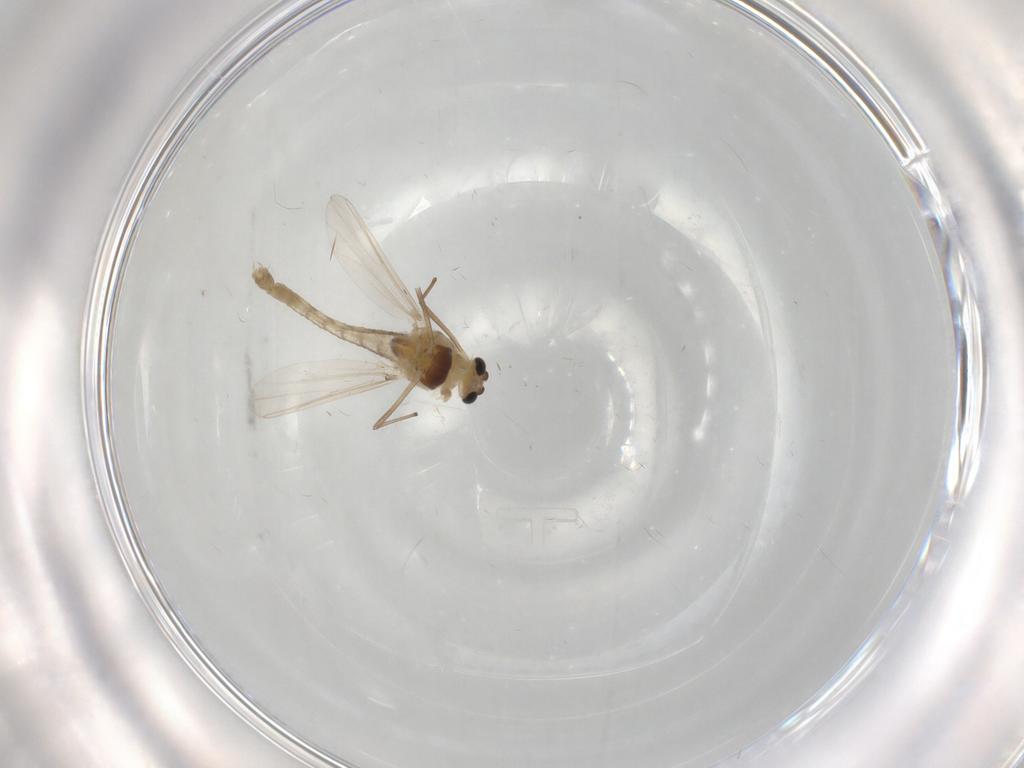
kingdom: Animalia
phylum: Arthropoda
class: Insecta
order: Diptera
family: Chironomidae
